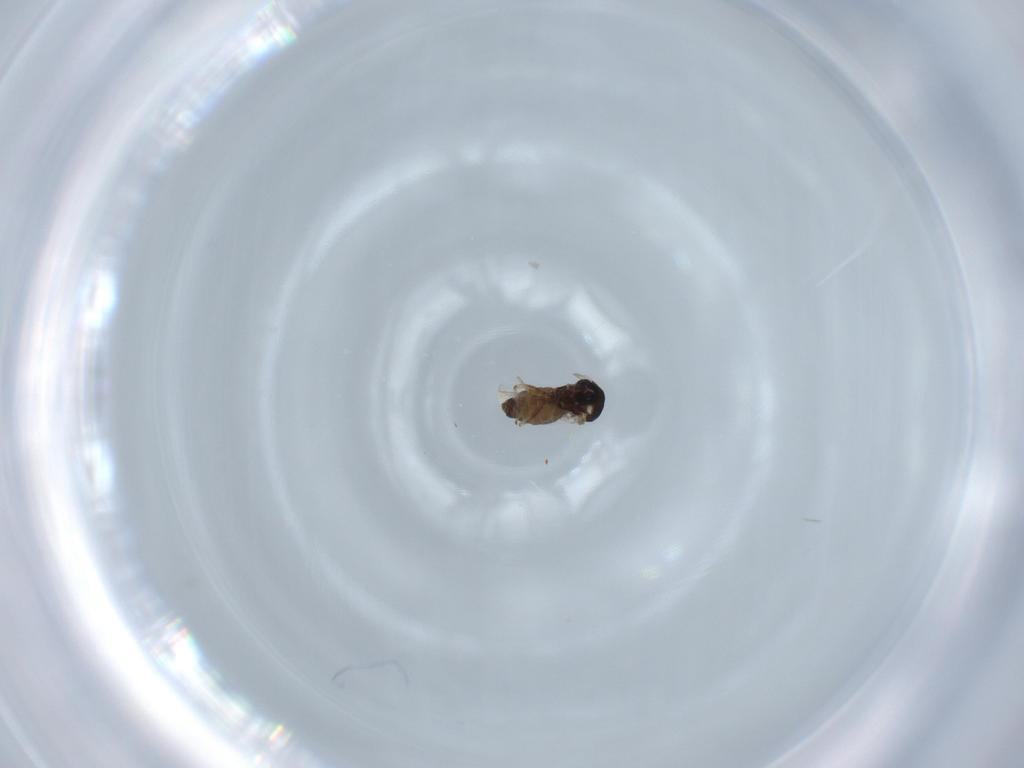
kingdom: Animalia
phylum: Arthropoda
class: Insecta
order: Diptera
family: Ceratopogonidae
